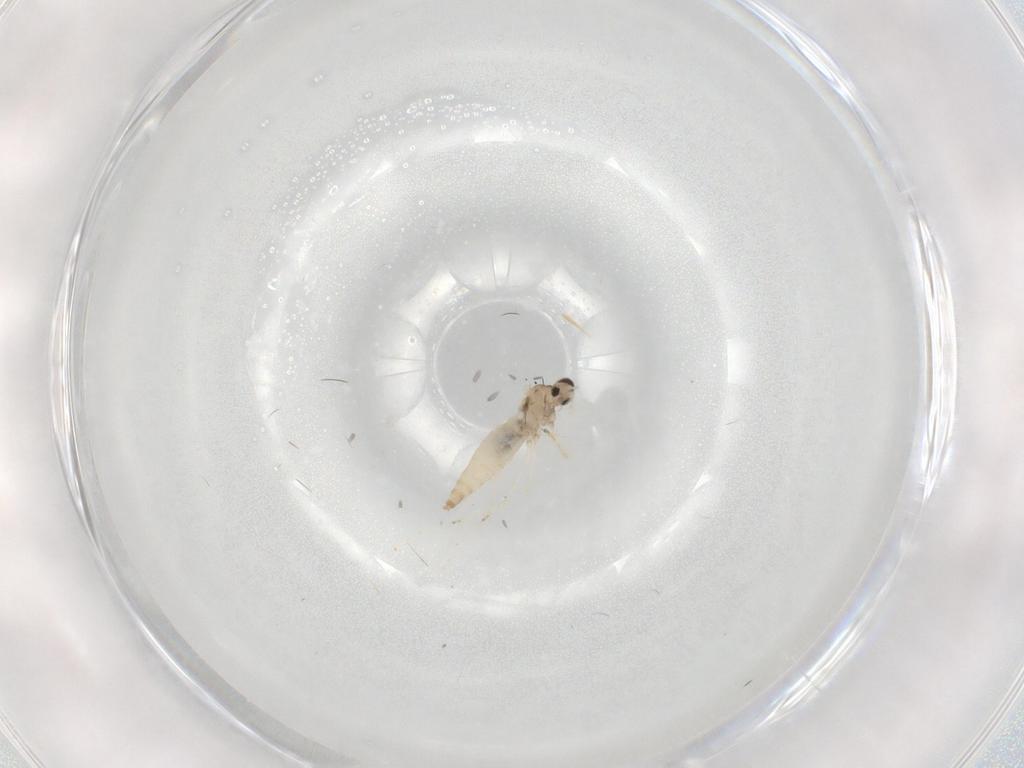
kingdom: Animalia
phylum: Arthropoda
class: Insecta
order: Diptera
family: Cecidomyiidae
